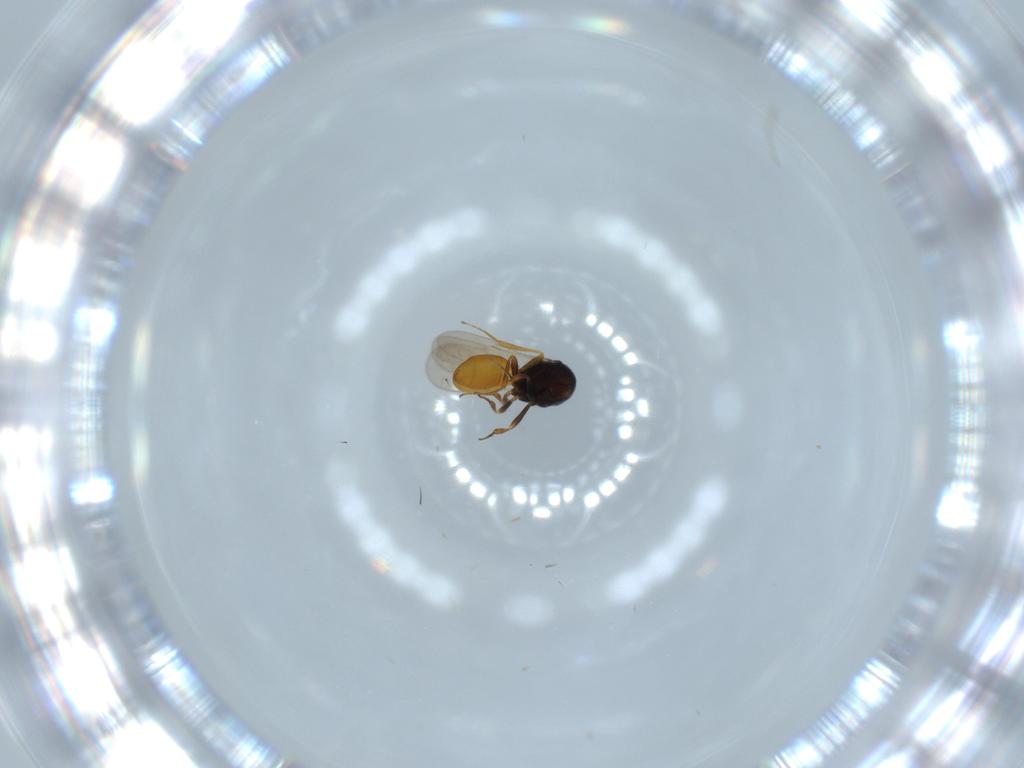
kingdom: Animalia
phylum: Arthropoda
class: Insecta
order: Hymenoptera
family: Scelionidae
